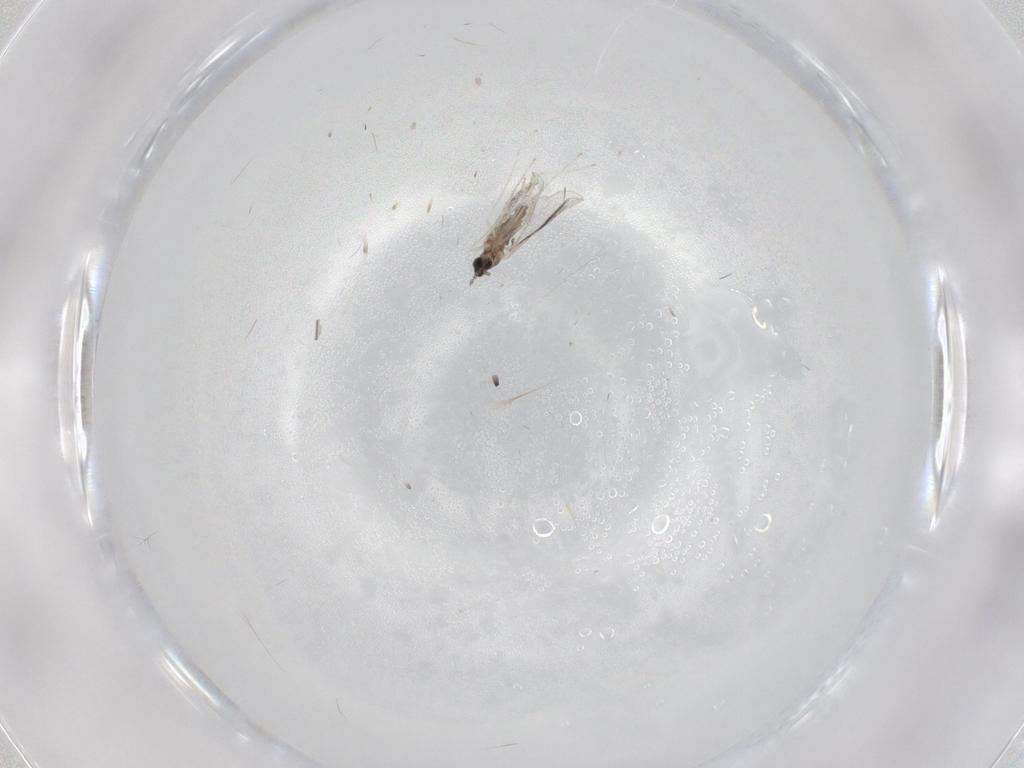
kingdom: Animalia
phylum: Arthropoda
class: Insecta
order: Diptera
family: Cecidomyiidae
